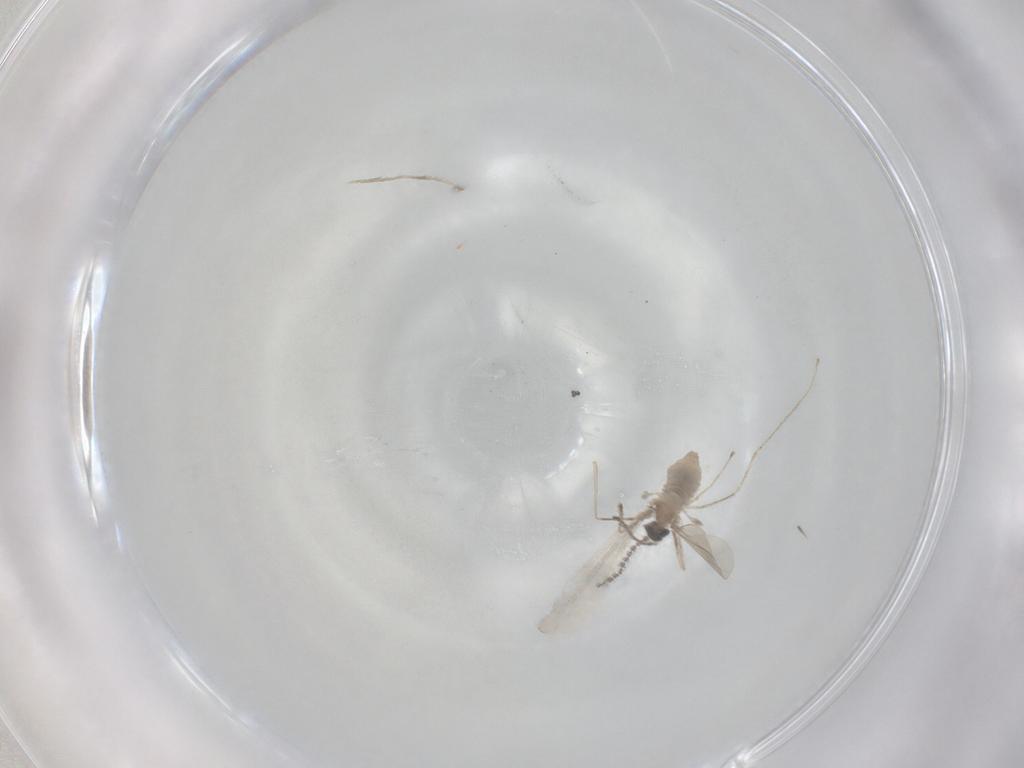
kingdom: Animalia
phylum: Arthropoda
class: Insecta
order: Diptera
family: Cecidomyiidae
